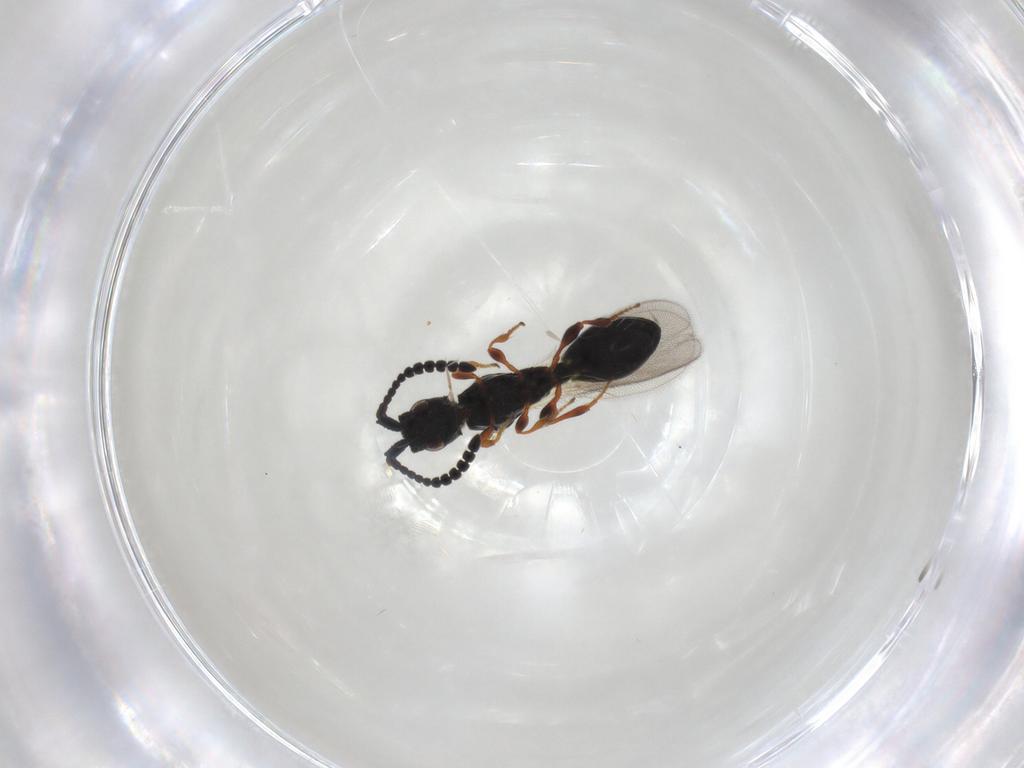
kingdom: Animalia
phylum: Arthropoda
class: Insecta
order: Hymenoptera
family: Diapriidae
